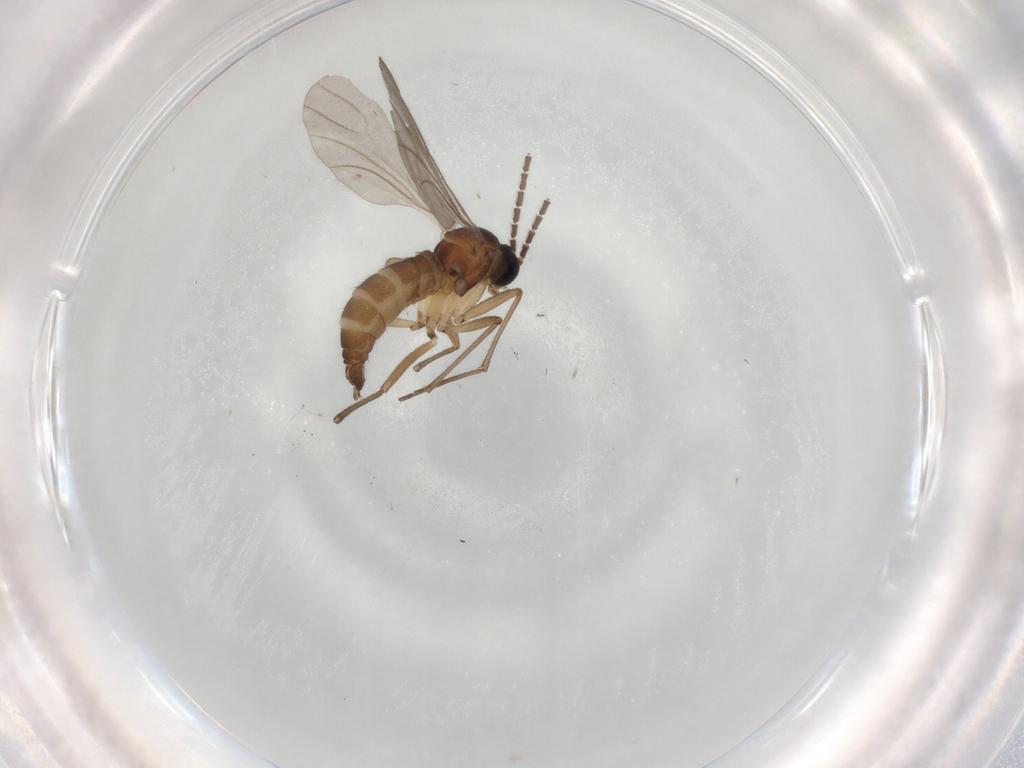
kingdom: Animalia
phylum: Arthropoda
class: Insecta
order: Diptera
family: Sciaridae
